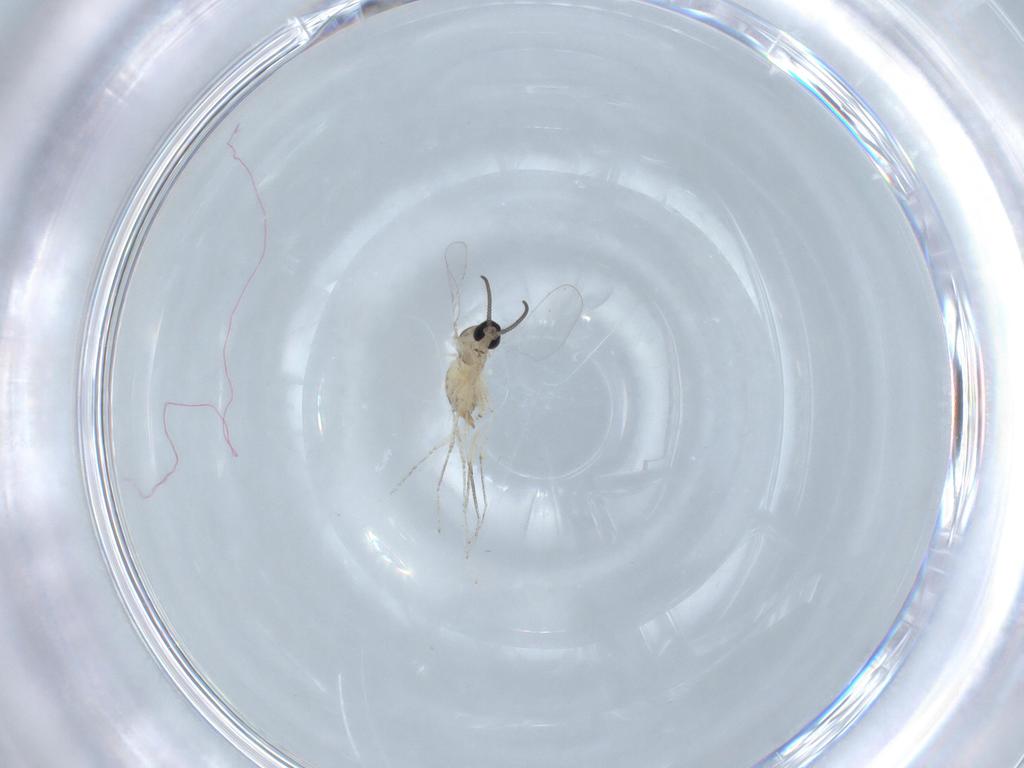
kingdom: Animalia
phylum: Arthropoda
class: Insecta
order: Diptera
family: Cecidomyiidae
